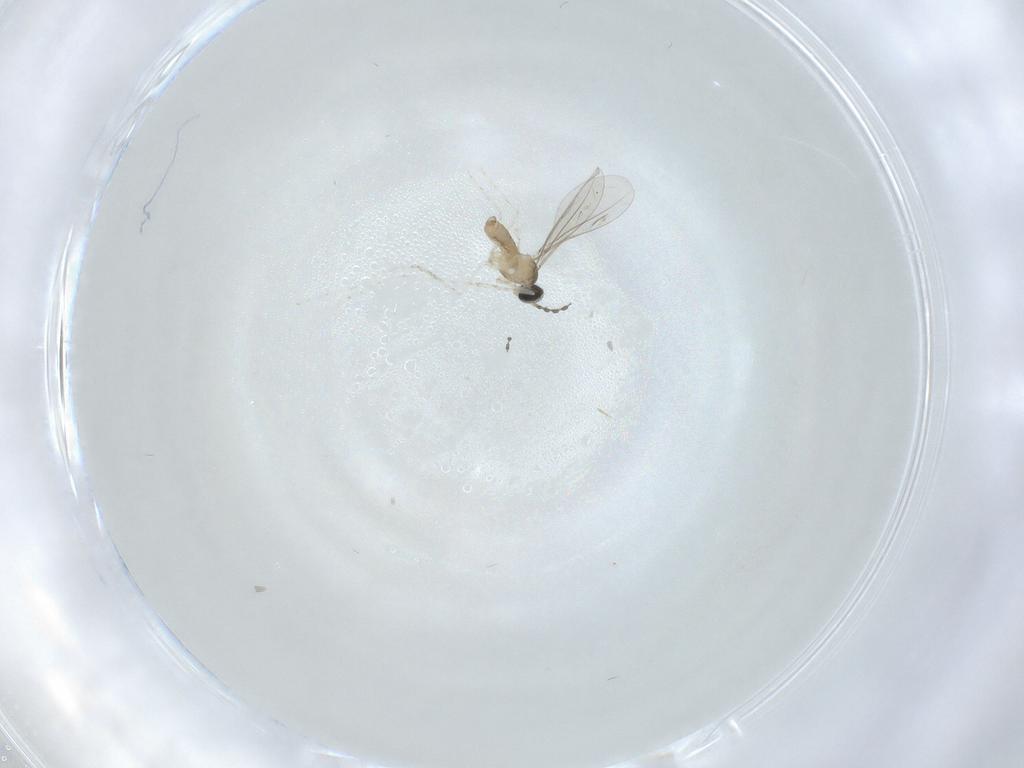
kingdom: Animalia
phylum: Arthropoda
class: Insecta
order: Diptera
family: Cecidomyiidae
